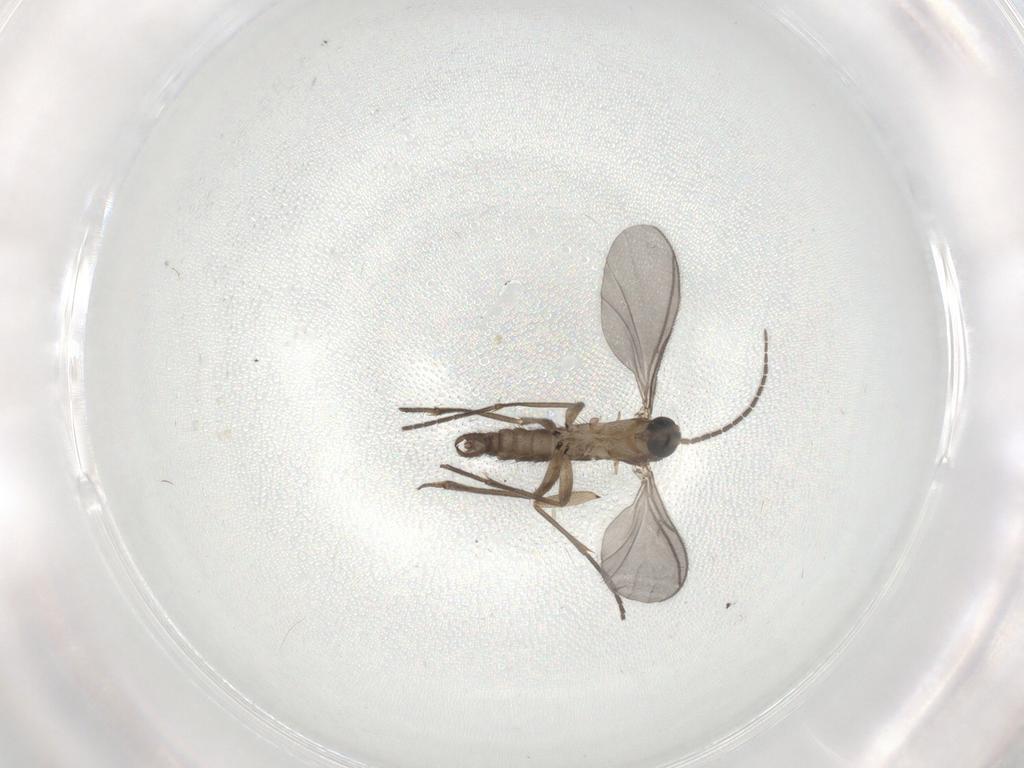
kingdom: Animalia
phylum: Arthropoda
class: Insecta
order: Diptera
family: Sciaridae
